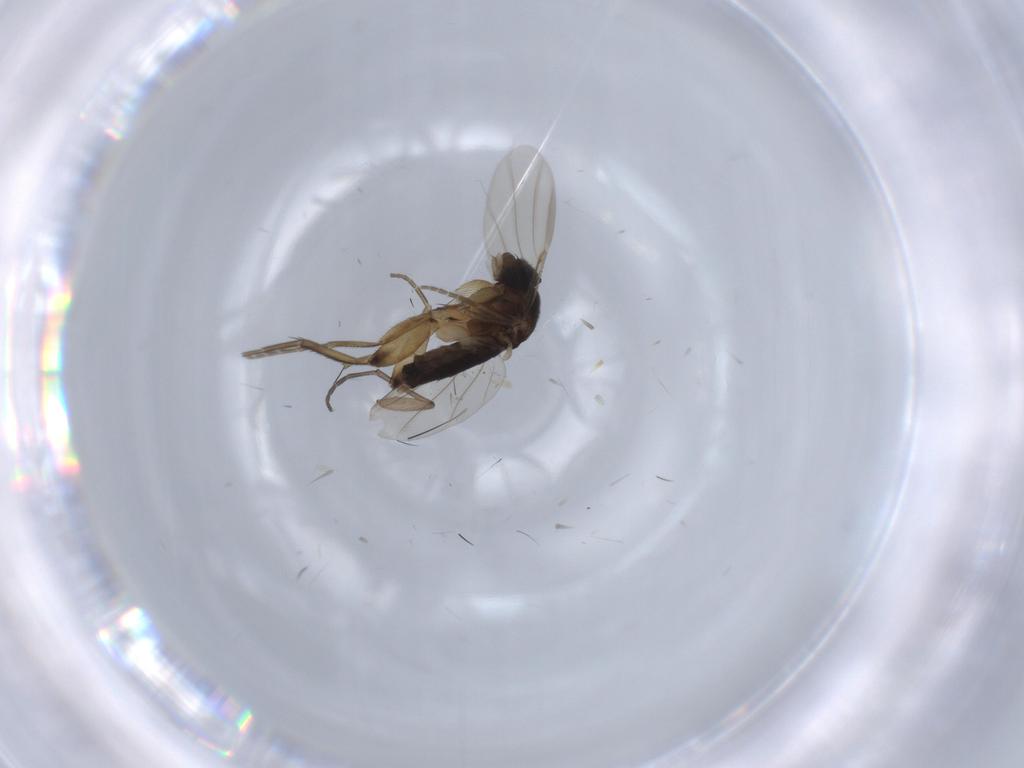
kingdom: Animalia
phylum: Arthropoda
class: Insecta
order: Diptera
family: Sciaridae
